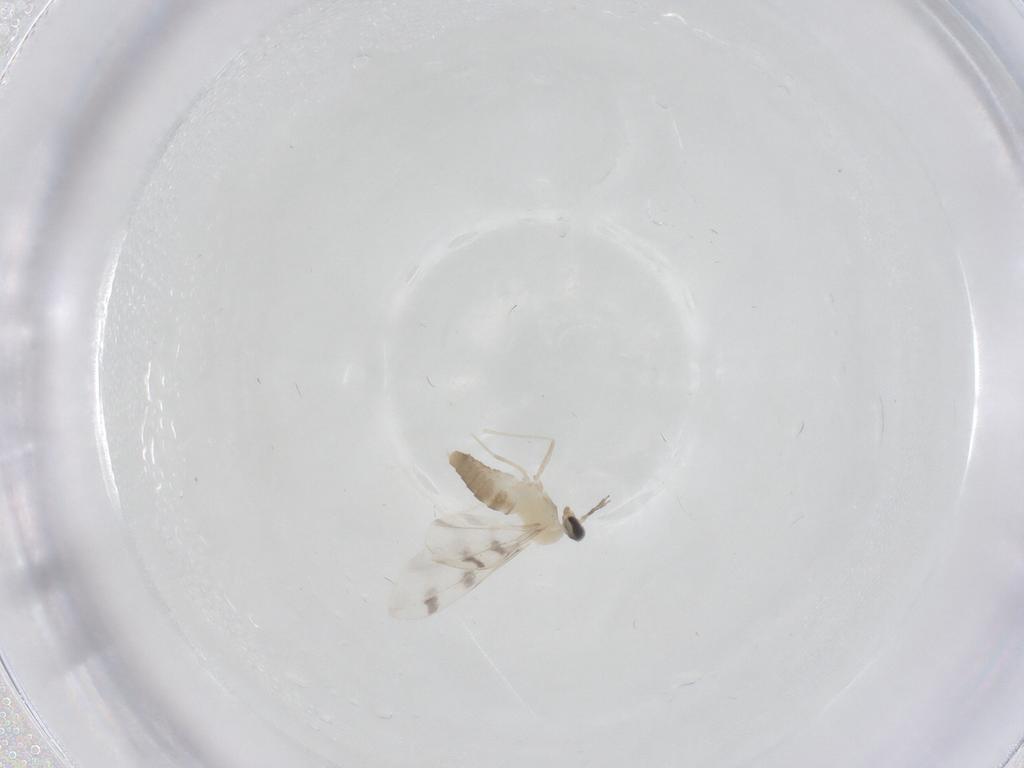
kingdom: Animalia
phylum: Arthropoda
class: Insecta
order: Diptera
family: Cecidomyiidae
